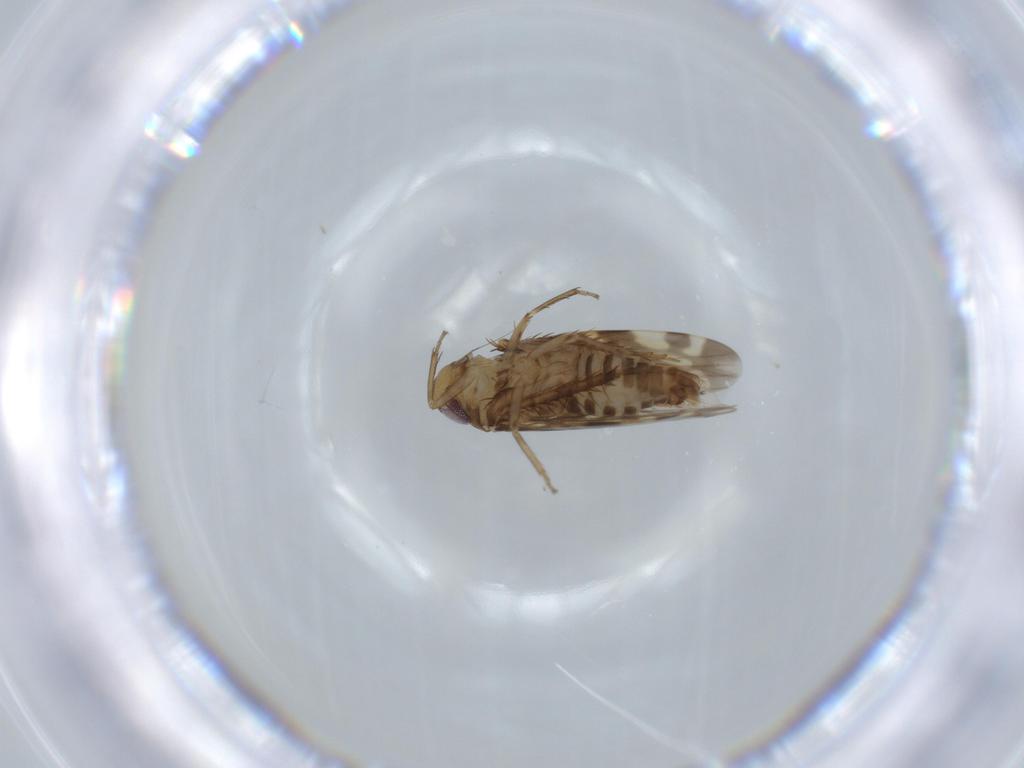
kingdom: Animalia
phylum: Arthropoda
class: Insecta
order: Hemiptera
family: Cicadellidae
